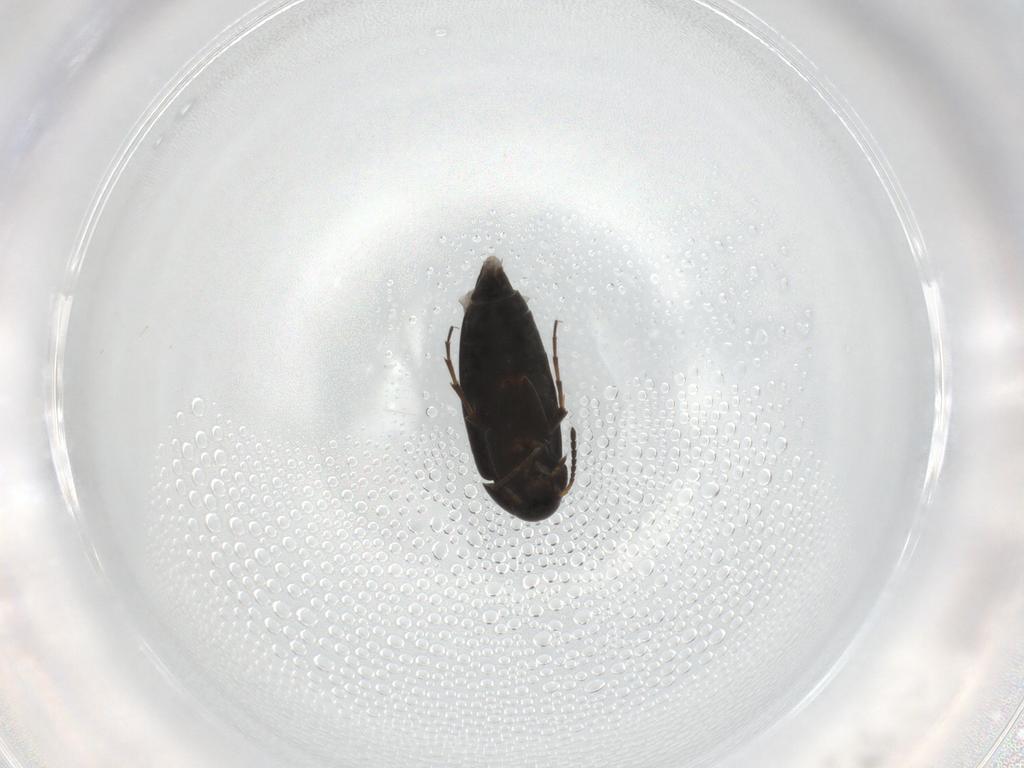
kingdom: Animalia
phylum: Arthropoda
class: Insecta
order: Coleoptera
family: Scraptiidae
